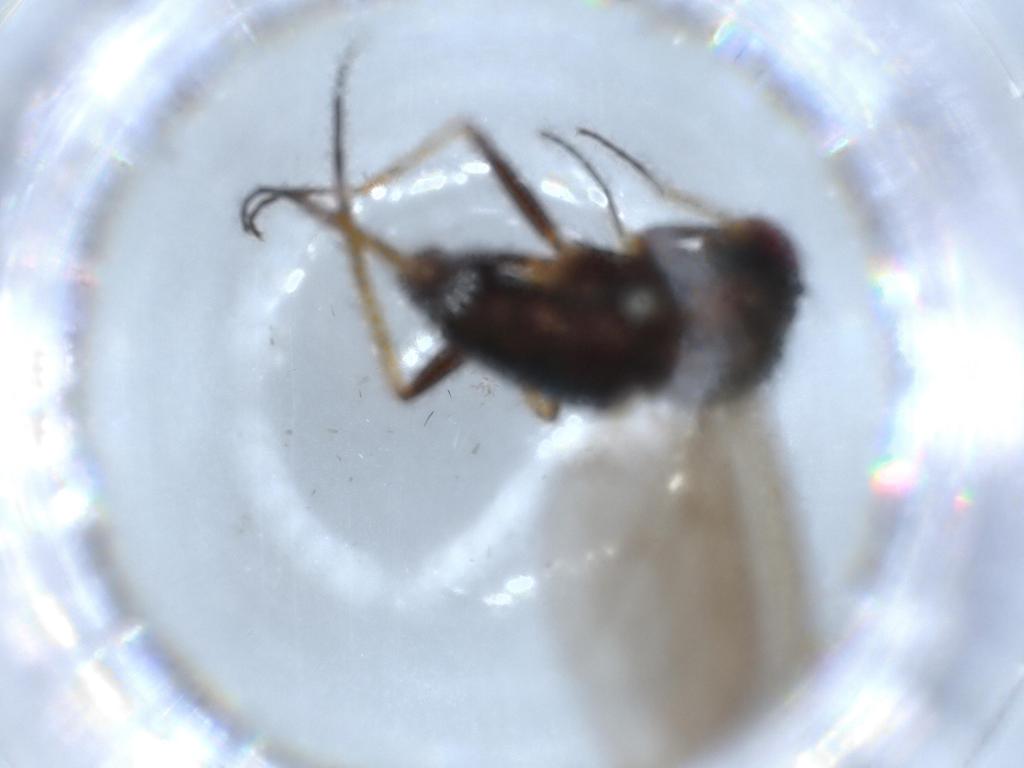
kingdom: Animalia
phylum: Arthropoda
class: Insecta
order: Diptera
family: Dolichopodidae
